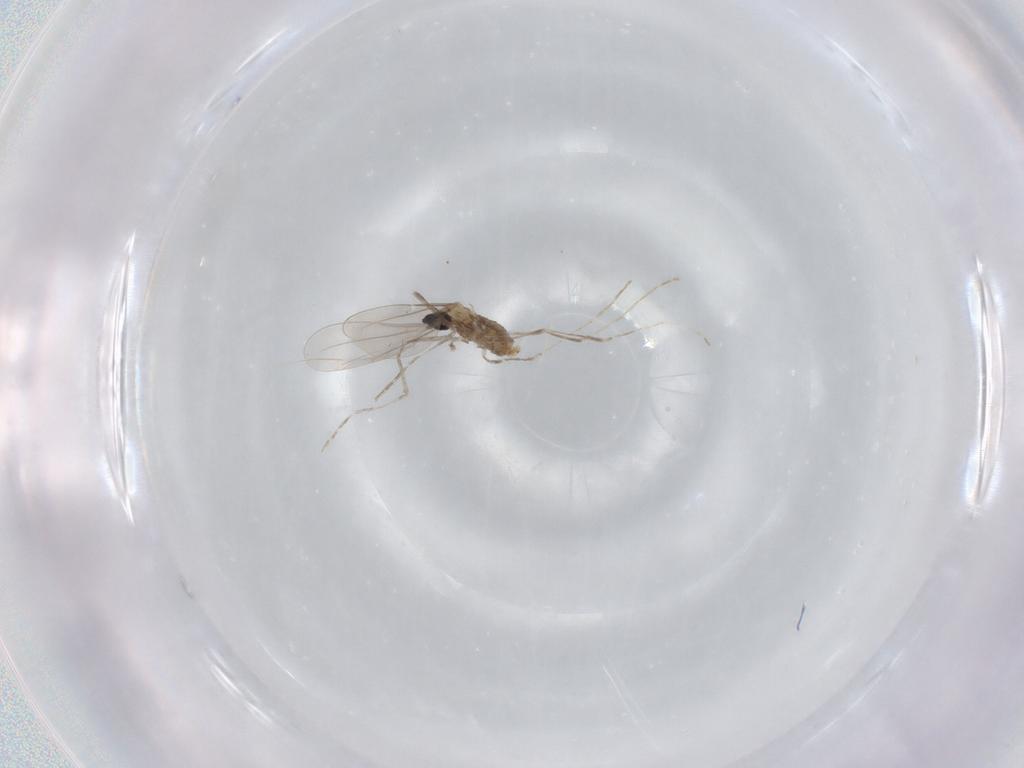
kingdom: Animalia
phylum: Arthropoda
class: Insecta
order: Diptera
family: Cecidomyiidae
